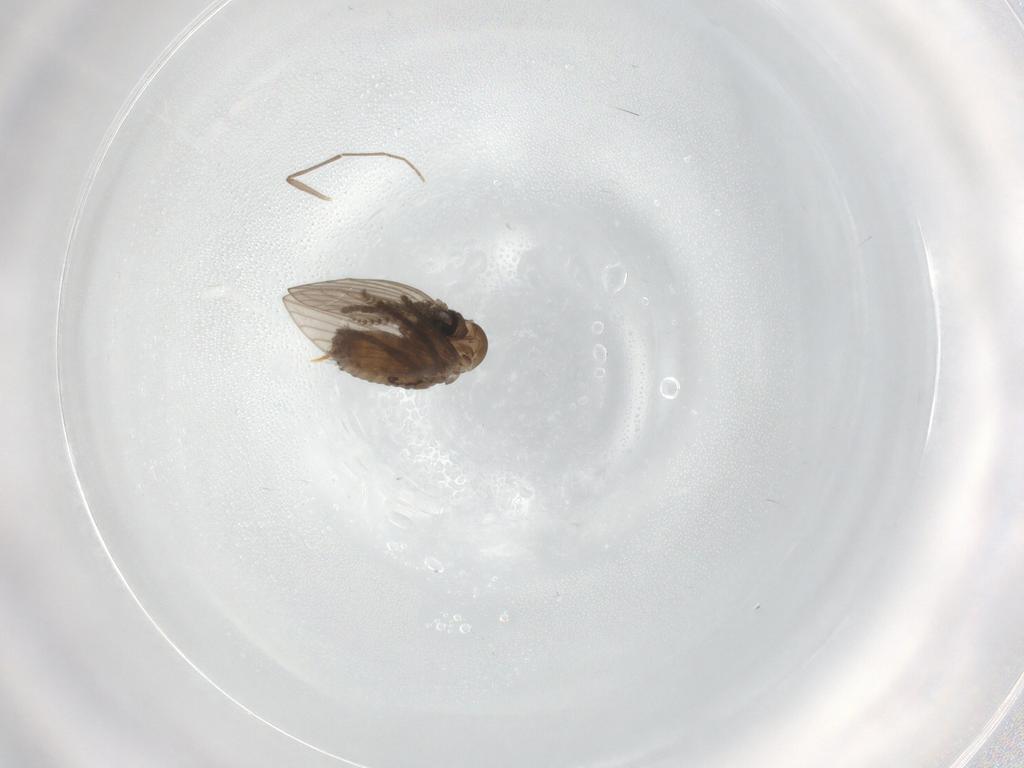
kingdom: Animalia
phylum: Arthropoda
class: Insecta
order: Diptera
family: Chironomidae
